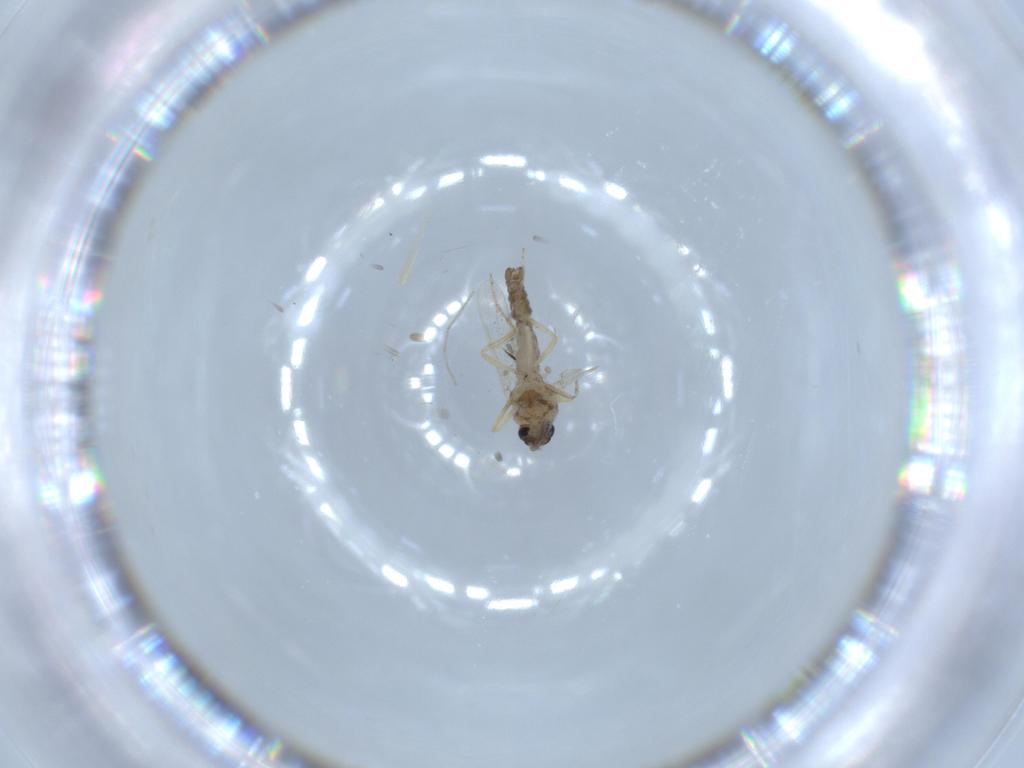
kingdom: Animalia
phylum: Arthropoda
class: Insecta
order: Diptera
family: Ceratopogonidae
